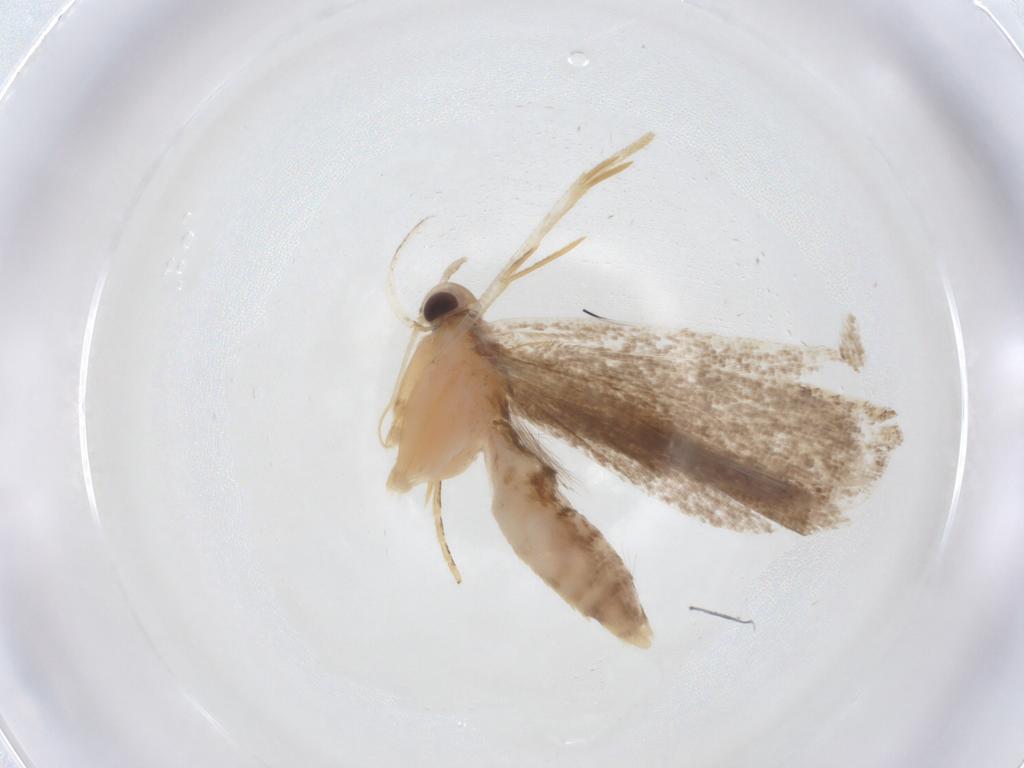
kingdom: Animalia
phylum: Arthropoda
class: Insecta
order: Lepidoptera
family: Erebidae
